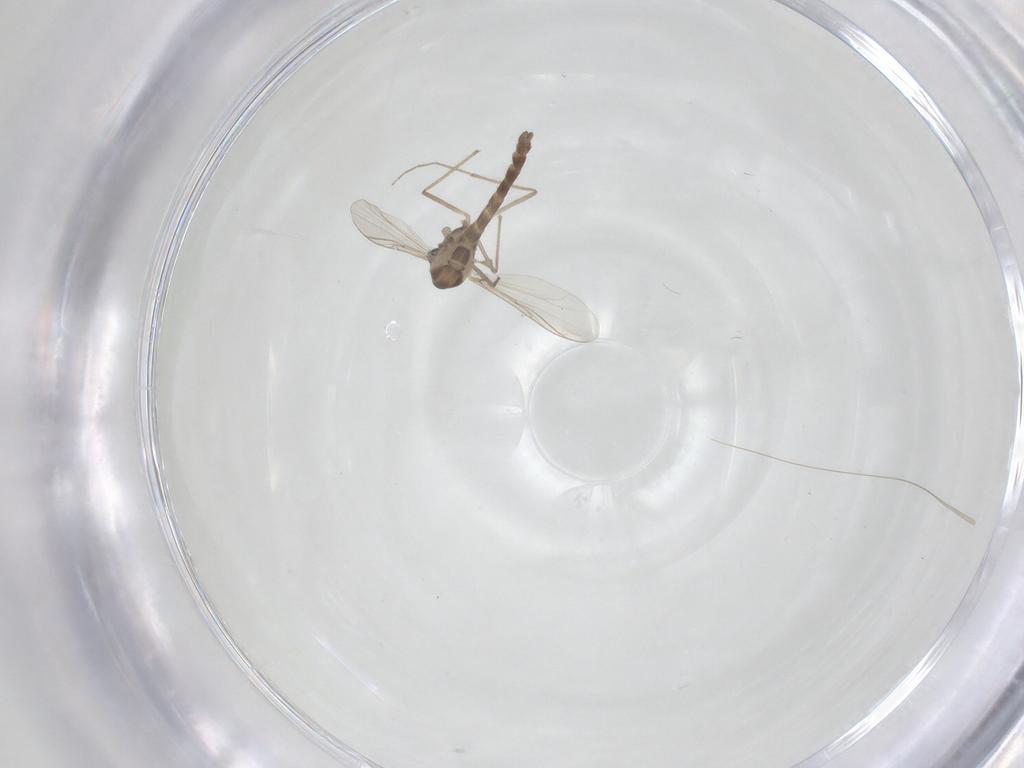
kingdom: Animalia
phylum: Arthropoda
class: Insecta
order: Diptera
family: Chironomidae
